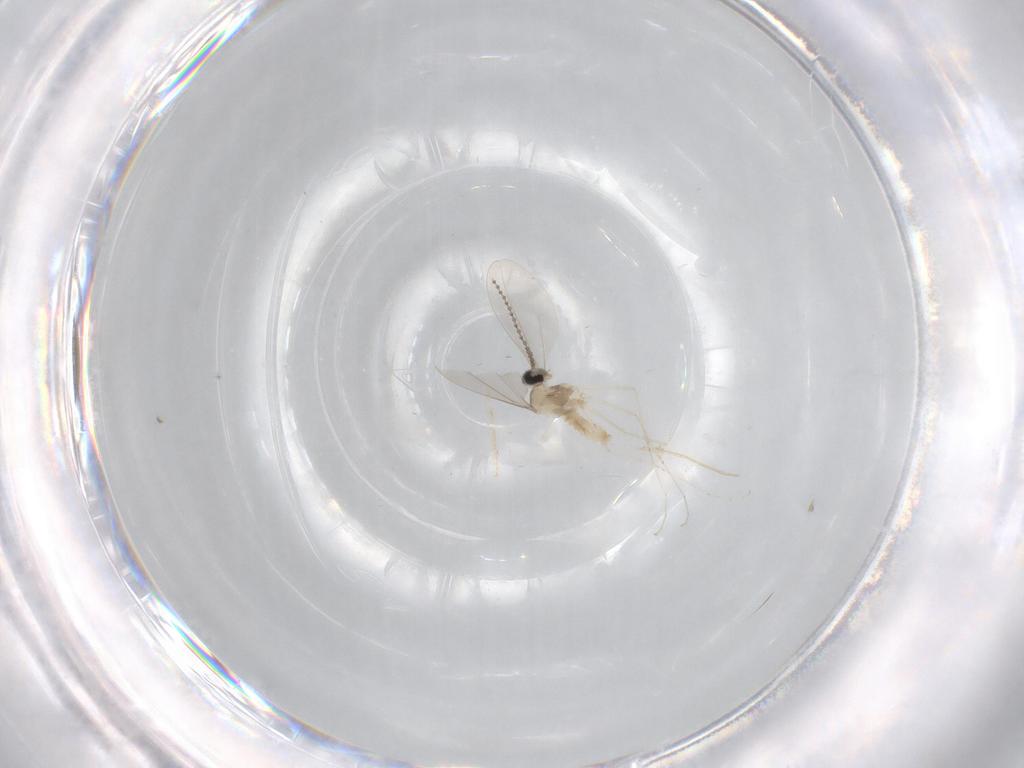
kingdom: Animalia
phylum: Arthropoda
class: Insecta
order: Diptera
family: Cecidomyiidae
